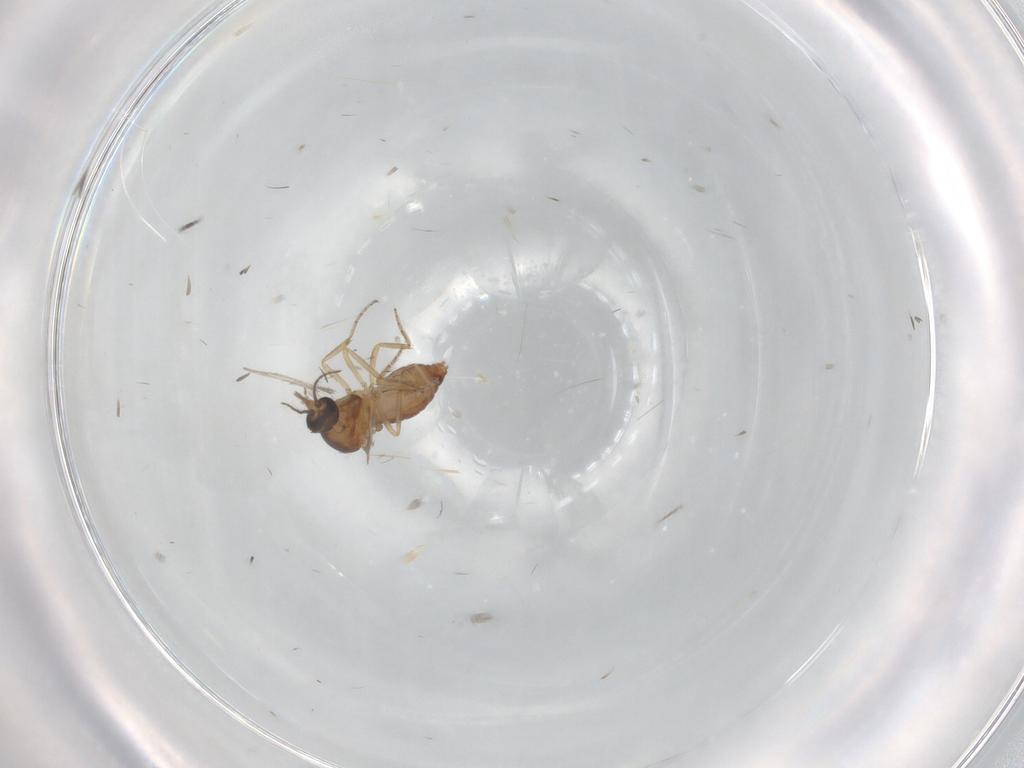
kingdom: Animalia
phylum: Arthropoda
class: Insecta
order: Diptera
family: Ceratopogonidae
